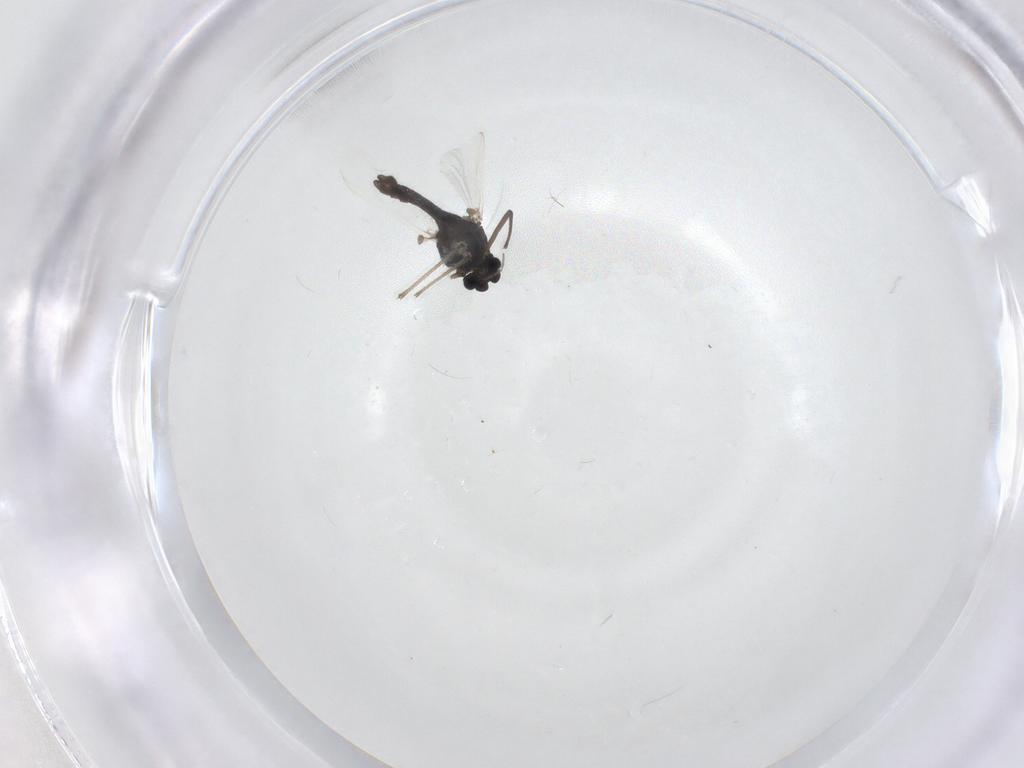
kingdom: Animalia
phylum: Arthropoda
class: Insecta
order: Diptera
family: Chironomidae
